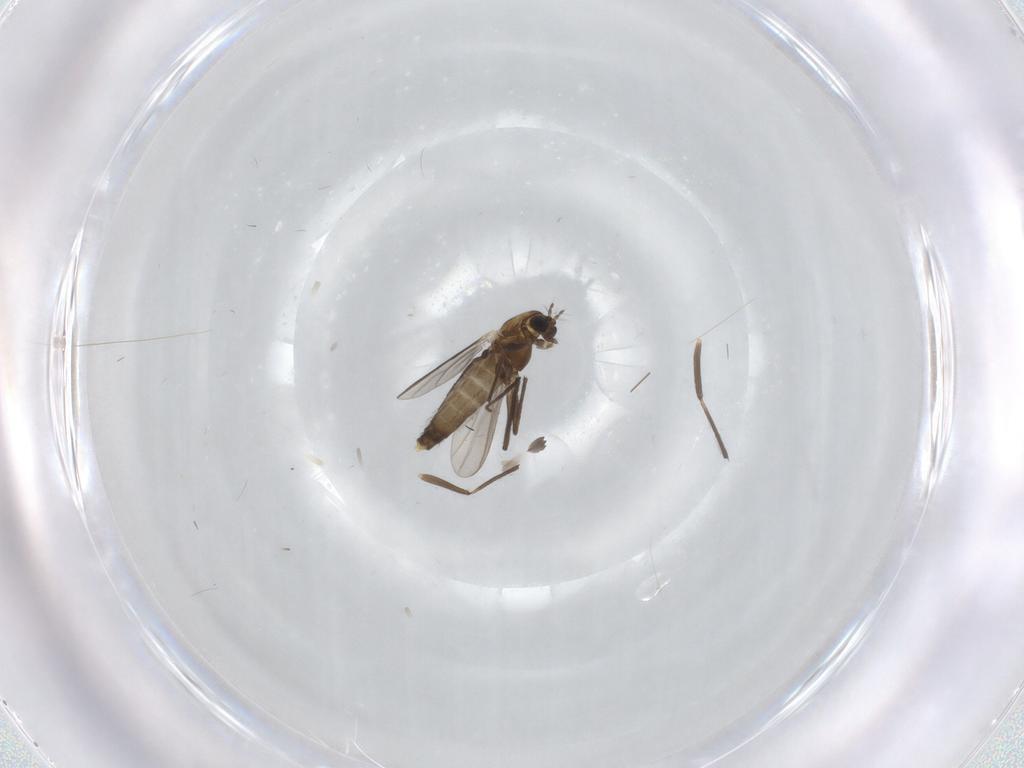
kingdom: Animalia
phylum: Arthropoda
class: Insecta
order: Diptera
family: Chironomidae
